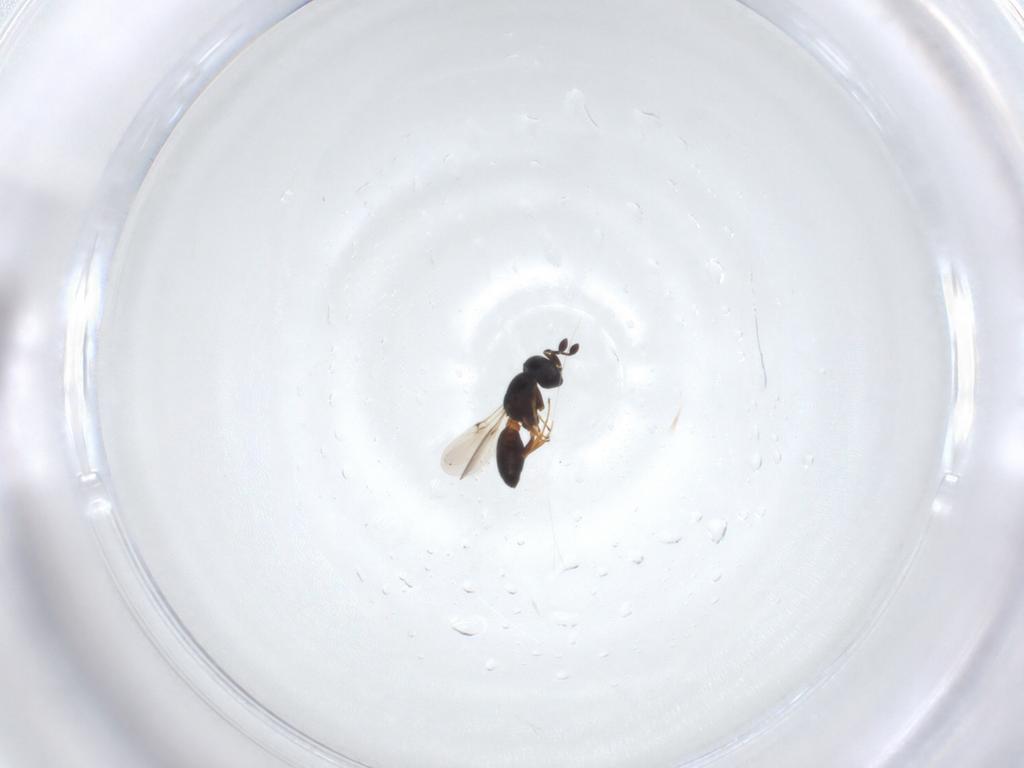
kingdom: Animalia
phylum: Arthropoda
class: Insecta
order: Hymenoptera
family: Scelionidae
